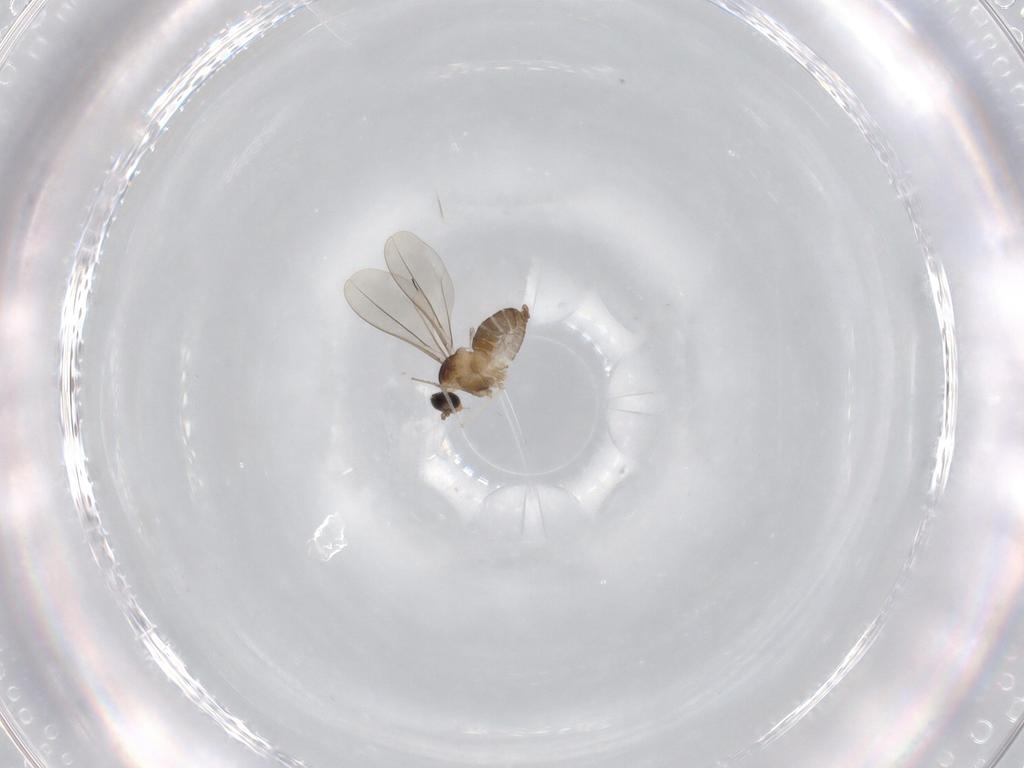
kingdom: Animalia
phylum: Arthropoda
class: Insecta
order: Diptera
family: Cecidomyiidae
